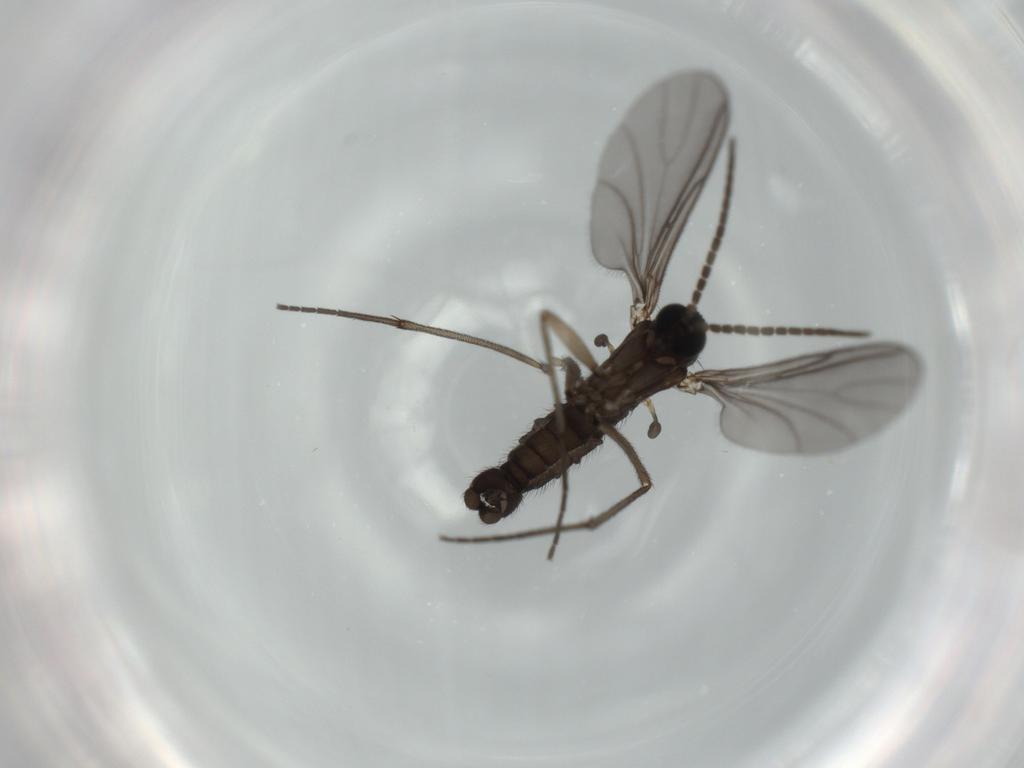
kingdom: Animalia
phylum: Arthropoda
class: Insecta
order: Diptera
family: Sciaridae
